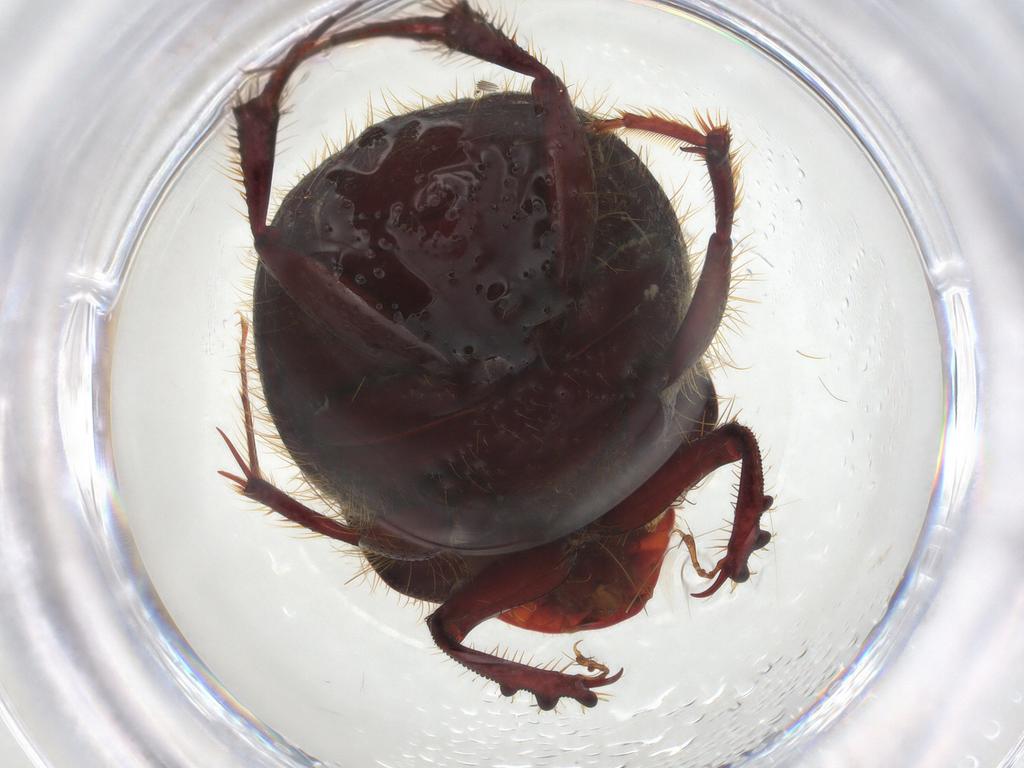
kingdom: Animalia
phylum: Arthropoda
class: Insecta
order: Coleoptera
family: Scarabaeidae
